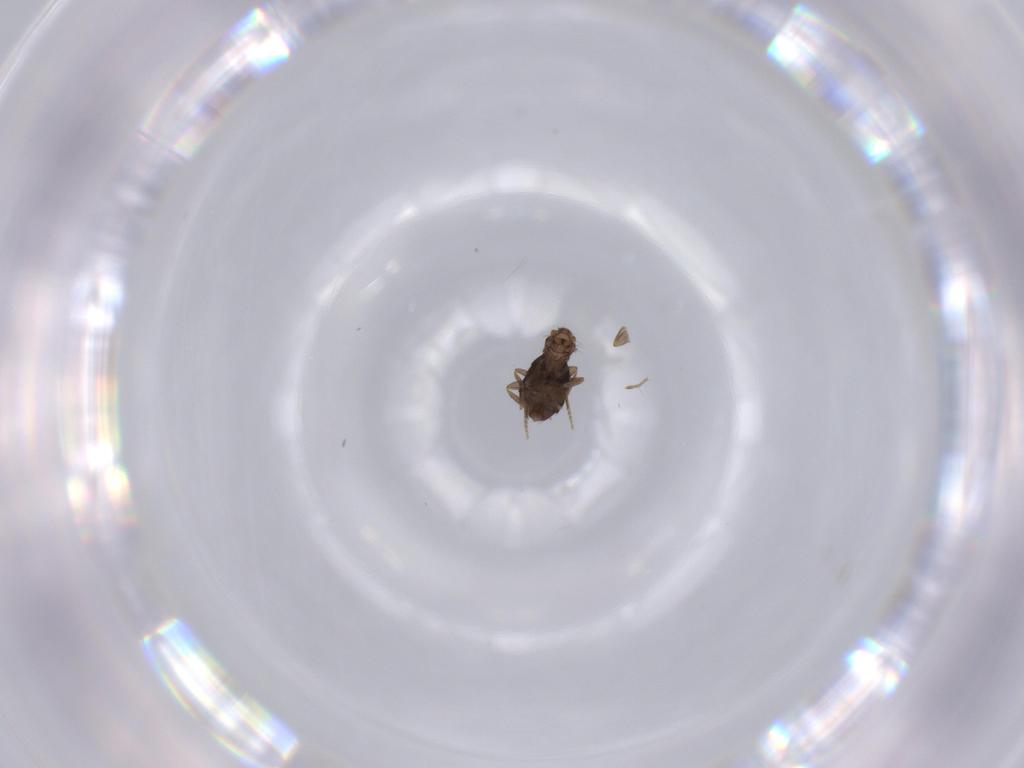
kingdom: Animalia
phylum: Arthropoda
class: Insecta
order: Diptera
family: Phoridae
